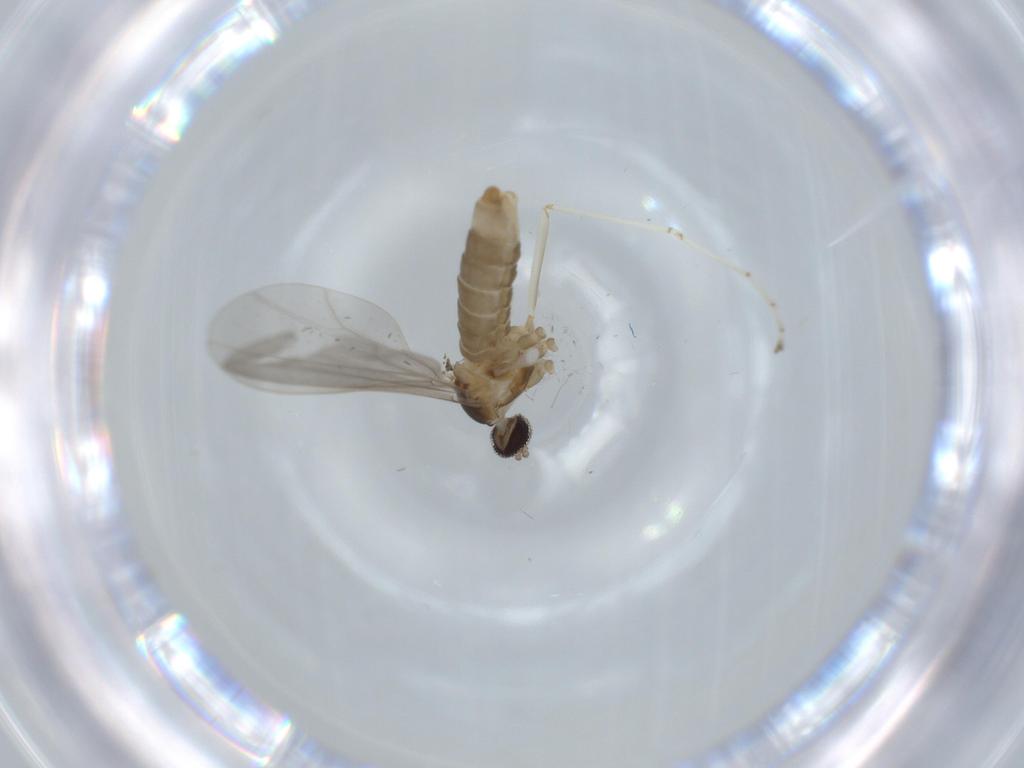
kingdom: Animalia
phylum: Arthropoda
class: Insecta
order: Diptera
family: Cecidomyiidae
